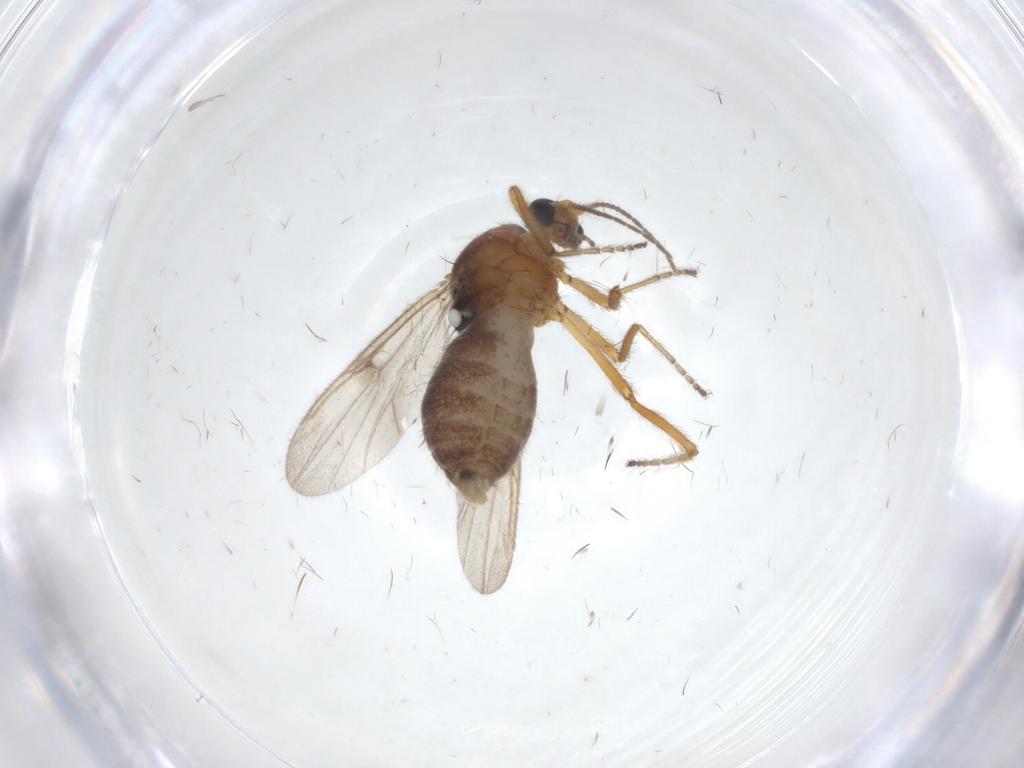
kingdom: Animalia
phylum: Arthropoda
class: Insecta
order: Diptera
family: Ceratopogonidae
